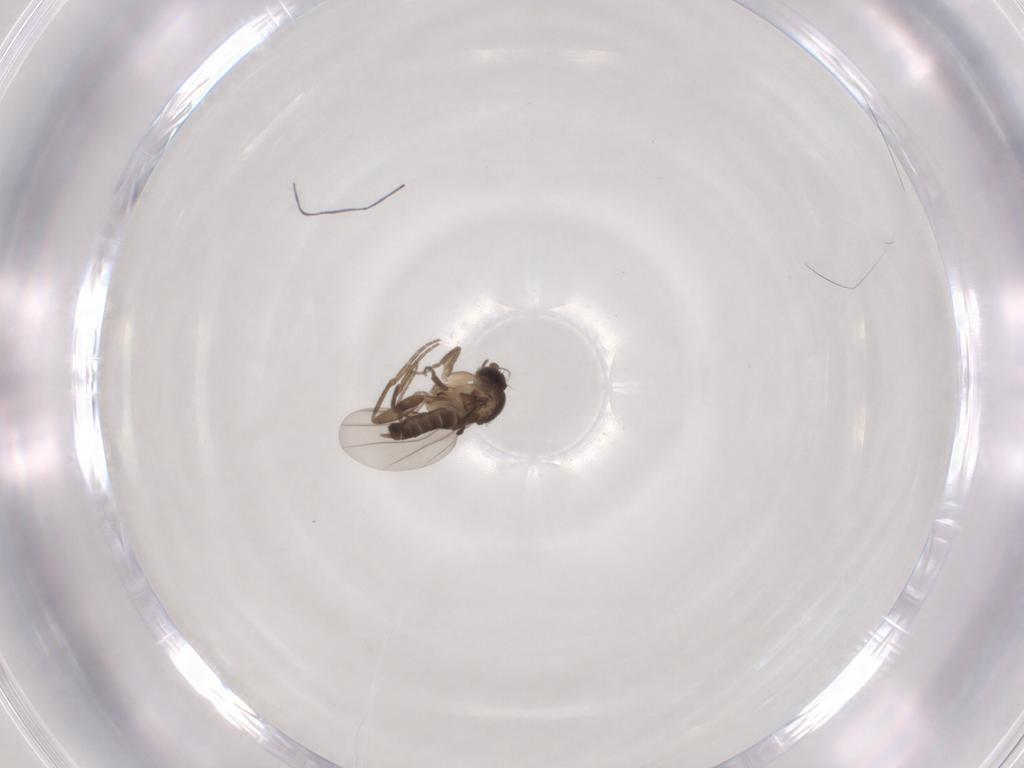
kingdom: Animalia
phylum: Arthropoda
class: Insecta
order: Diptera
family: Phoridae
